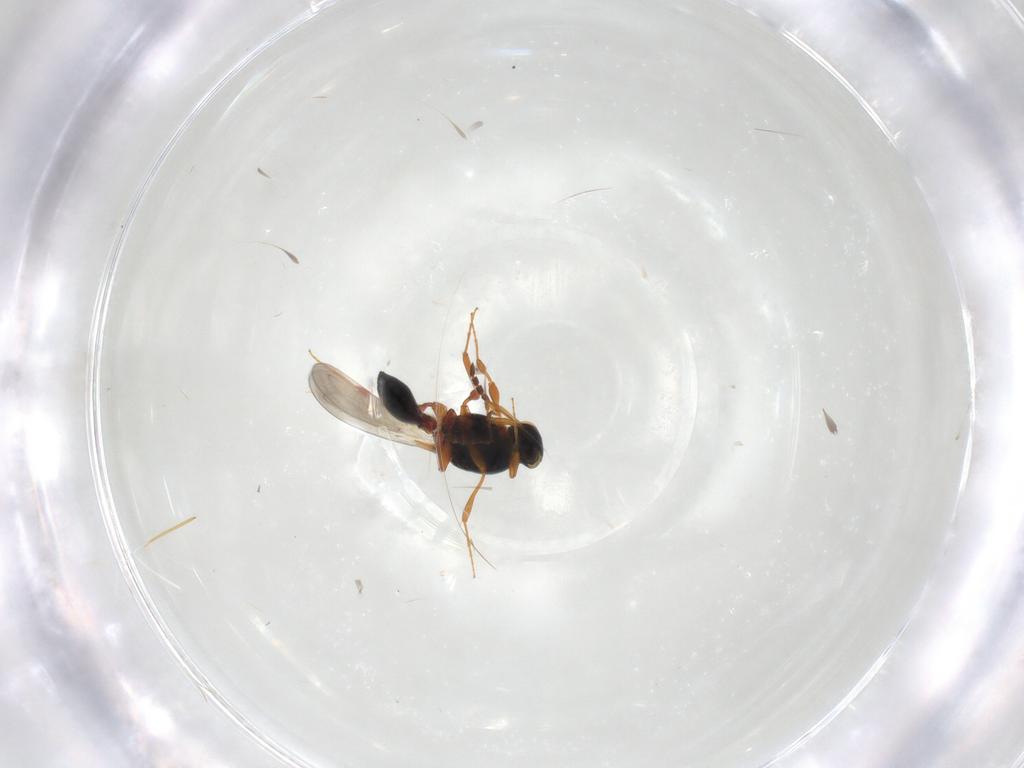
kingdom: Animalia
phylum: Arthropoda
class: Insecta
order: Hymenoptera
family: Platygastridae
